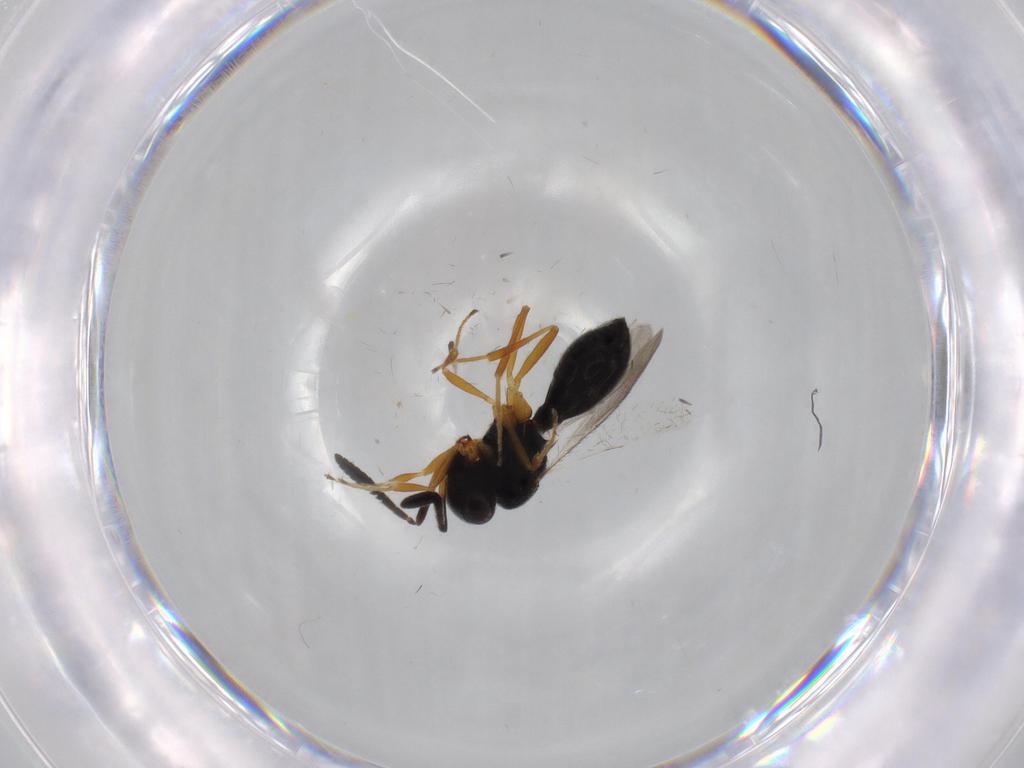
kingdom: Animalia
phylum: Arthropoda
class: Insecta
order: Hymenoptera
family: Scelionidae
